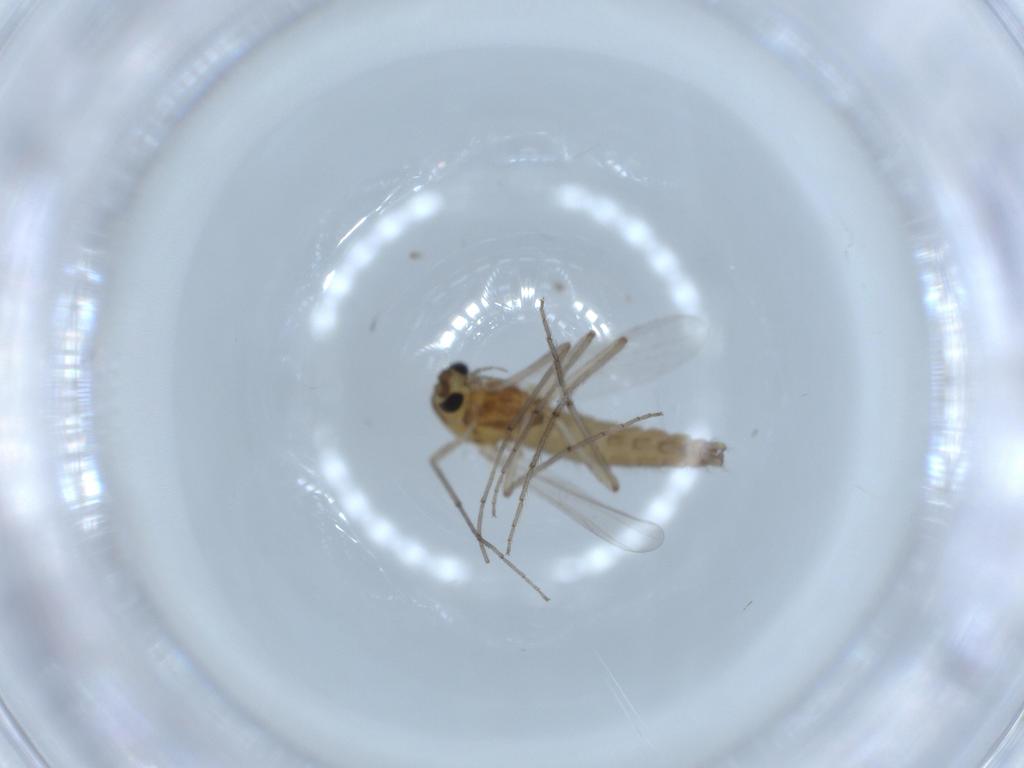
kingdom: Animalia
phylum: Arthropoda
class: Insecta
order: Diptera
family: Chironomidae
